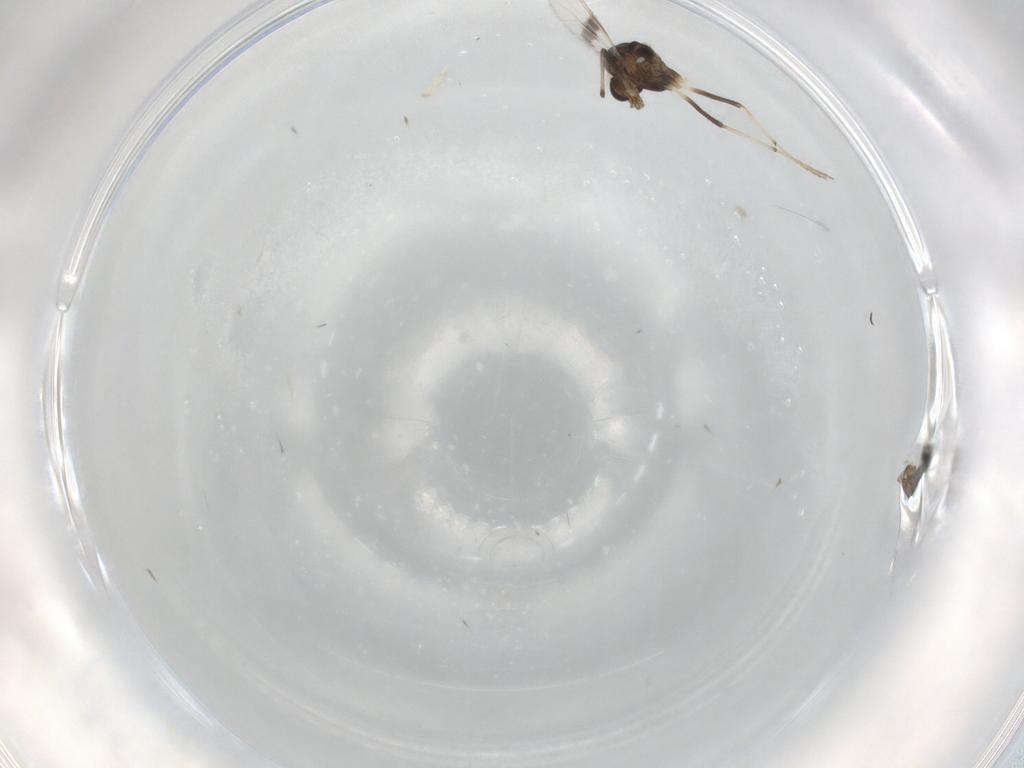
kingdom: Animalia
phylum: Arthropoda
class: Insecta
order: Diptera
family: Chironomidae
